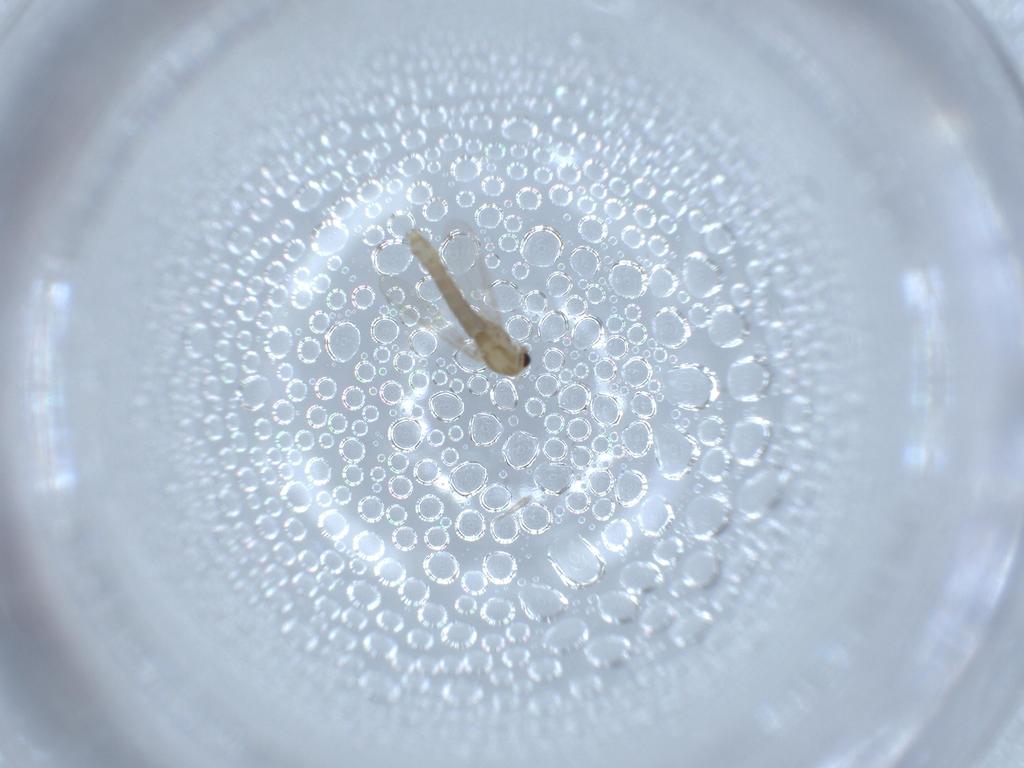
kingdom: Animalia
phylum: Arthropoda
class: Insecta
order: Diptera
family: Chironomidae
